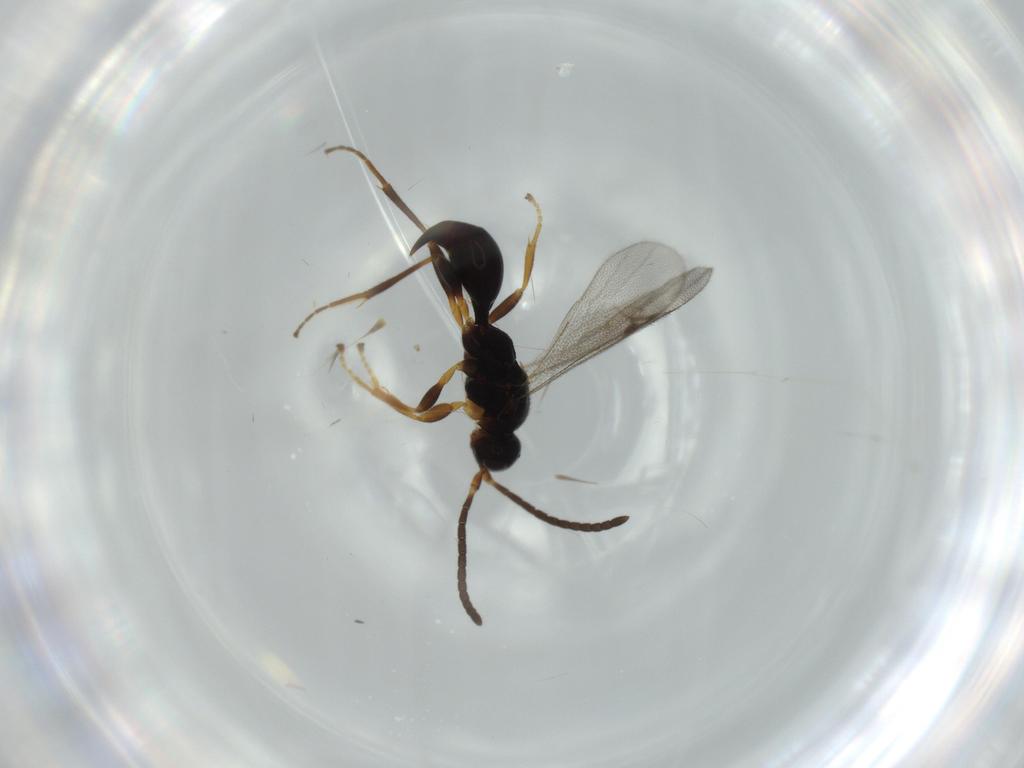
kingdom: Animalia
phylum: Arthropoda
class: Insecta
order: Hymenoptera
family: Proctotrupidae
